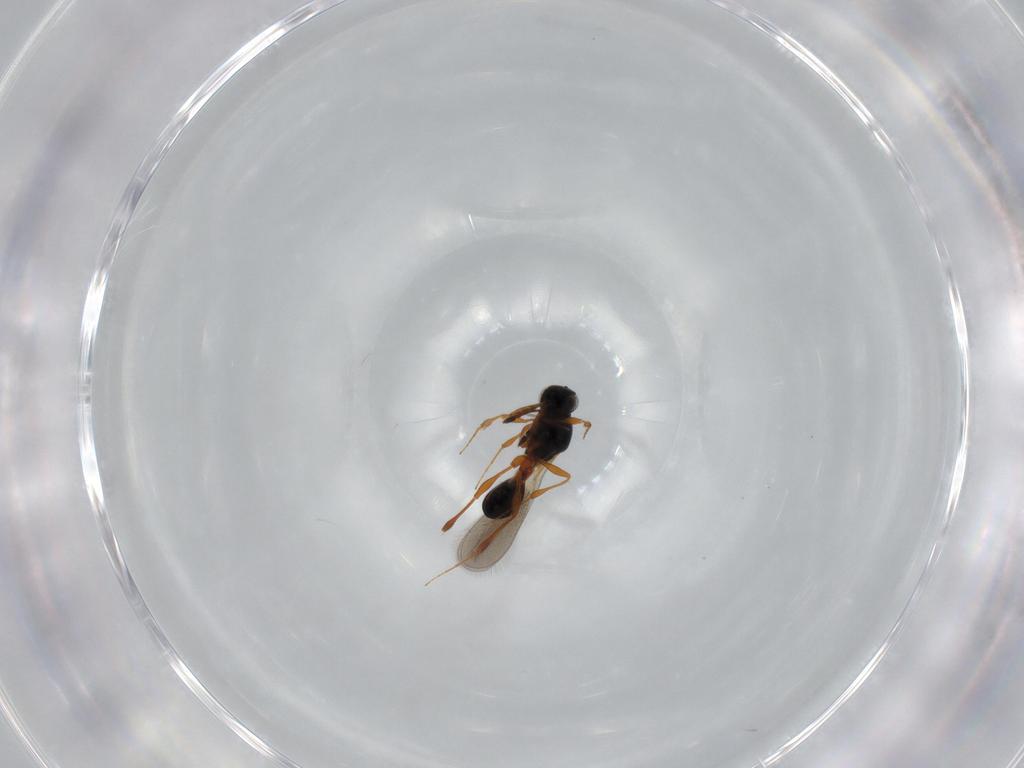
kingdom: Animalia
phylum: Arthropoda
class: Insecta
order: Hymenoptera
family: Platygastridae
